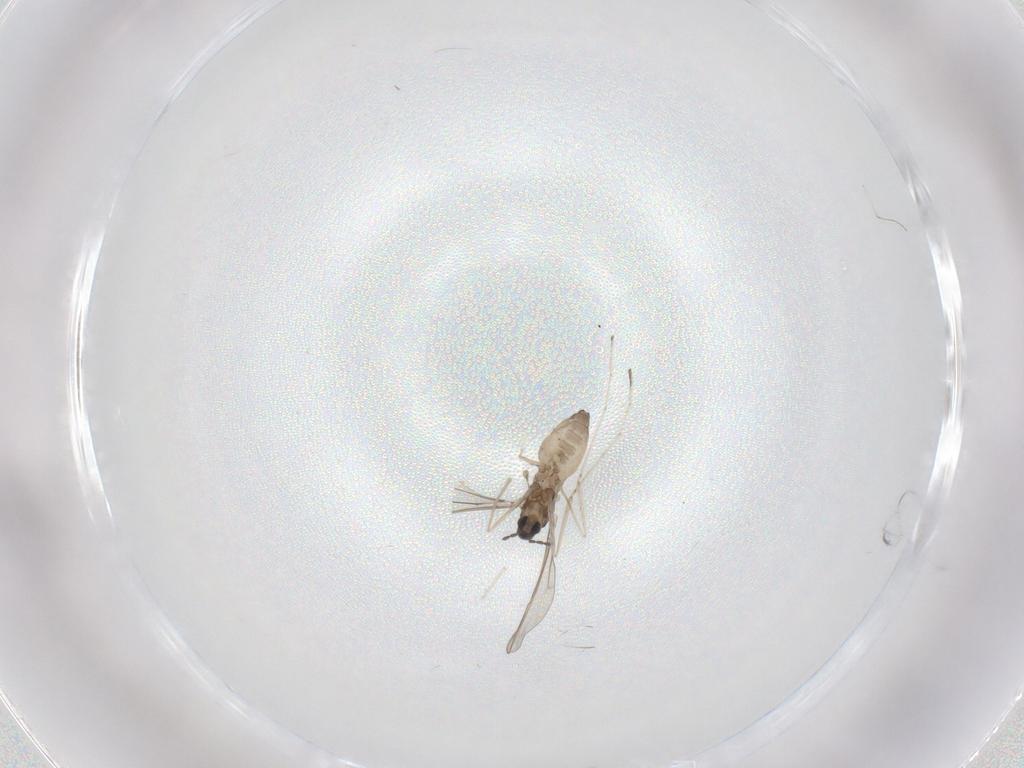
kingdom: Animalia
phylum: Arthropoda
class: Insecta
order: Diptera
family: Cecidomyiidae
